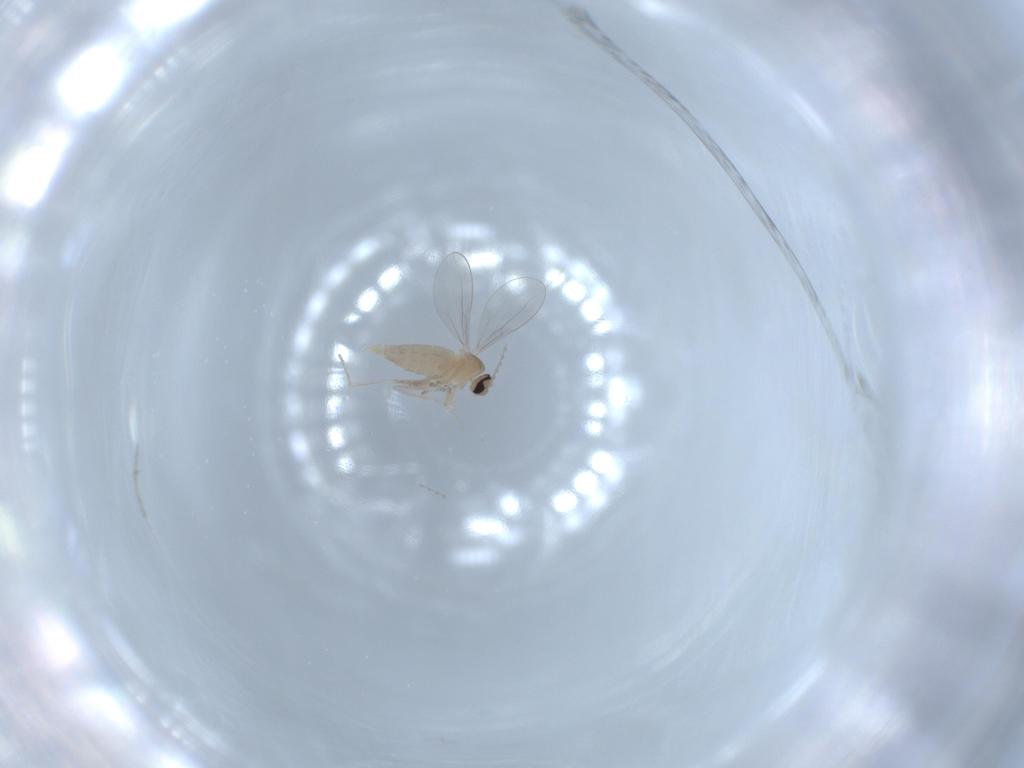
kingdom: Animalia
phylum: Arthropoda
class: Insecta
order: Diptera
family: Cecidomyiidae
